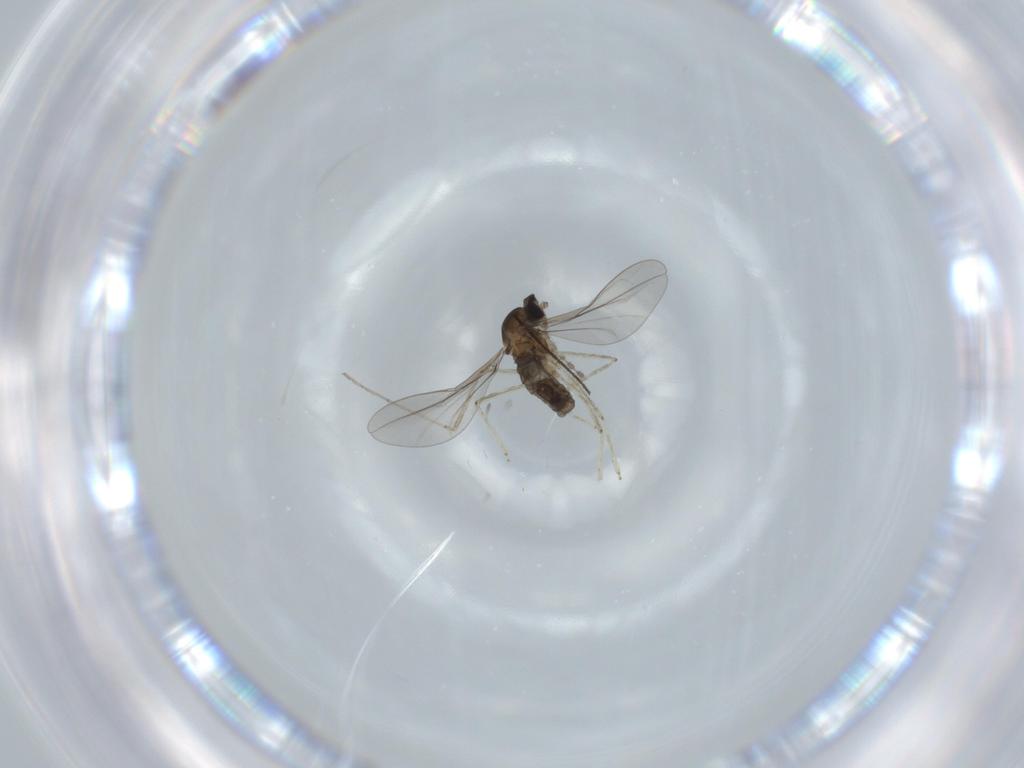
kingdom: Animalia
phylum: Arthropoda
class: Insecta
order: Diptera
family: Cecidomyiidae
